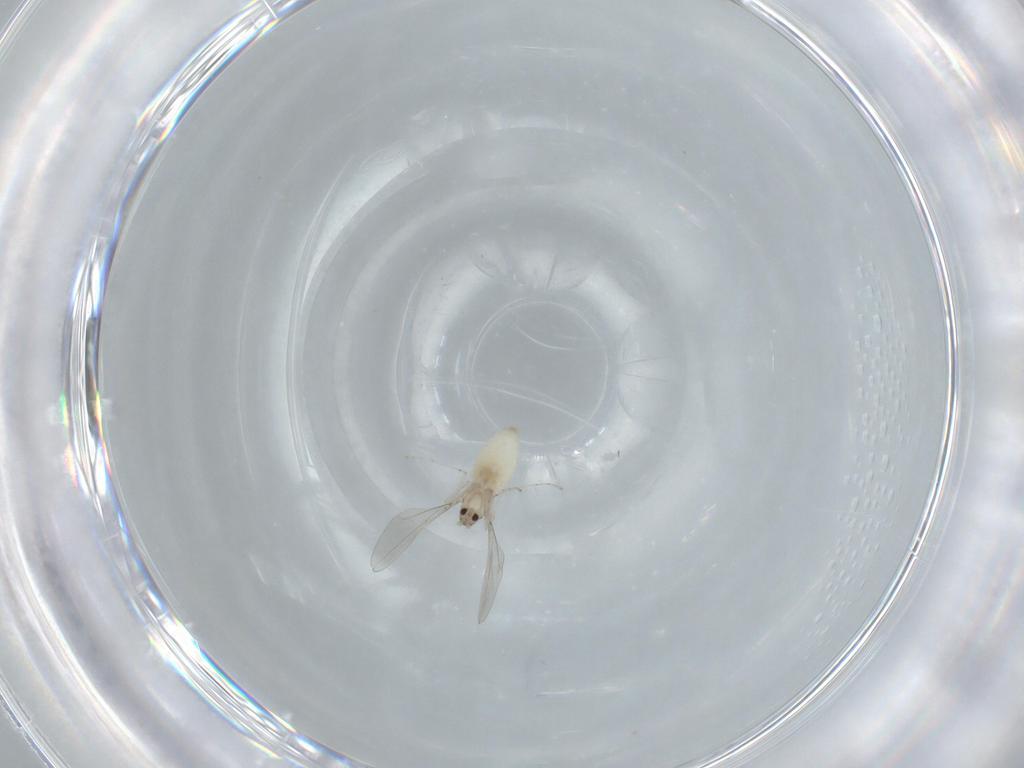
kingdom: Animalia
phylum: Arthropoda
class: Insecta
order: Diptera
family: Cecidomyiidae
